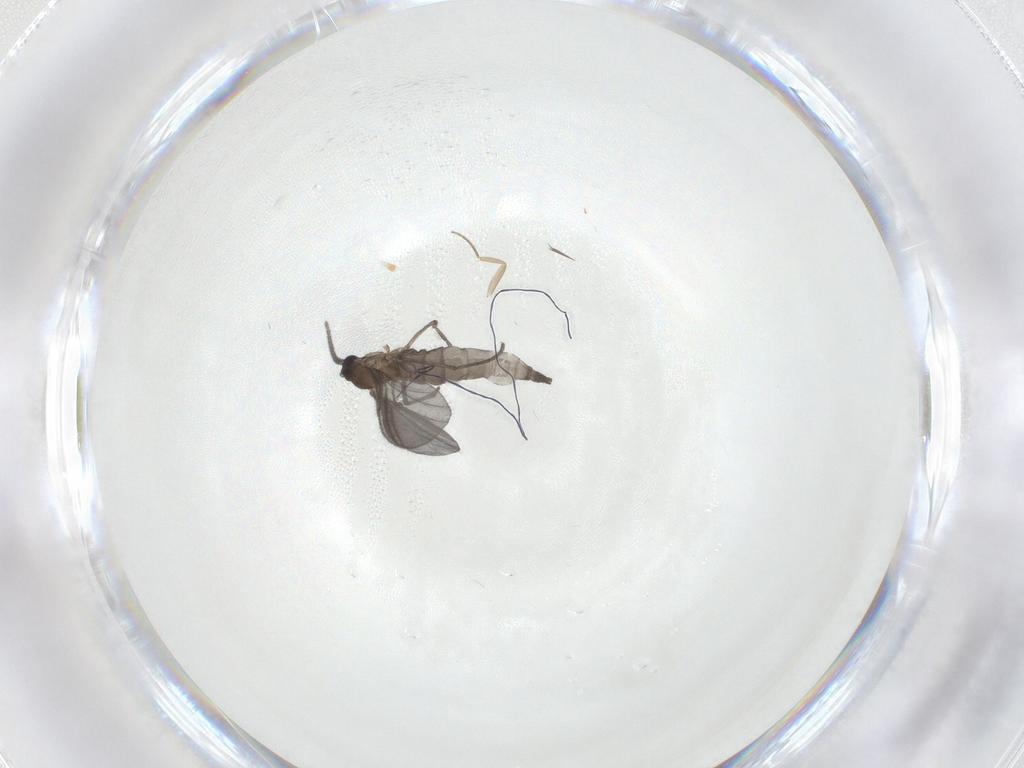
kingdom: Animalia
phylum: Arthropoda
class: Insecta
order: Diptera
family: Sciaridae
